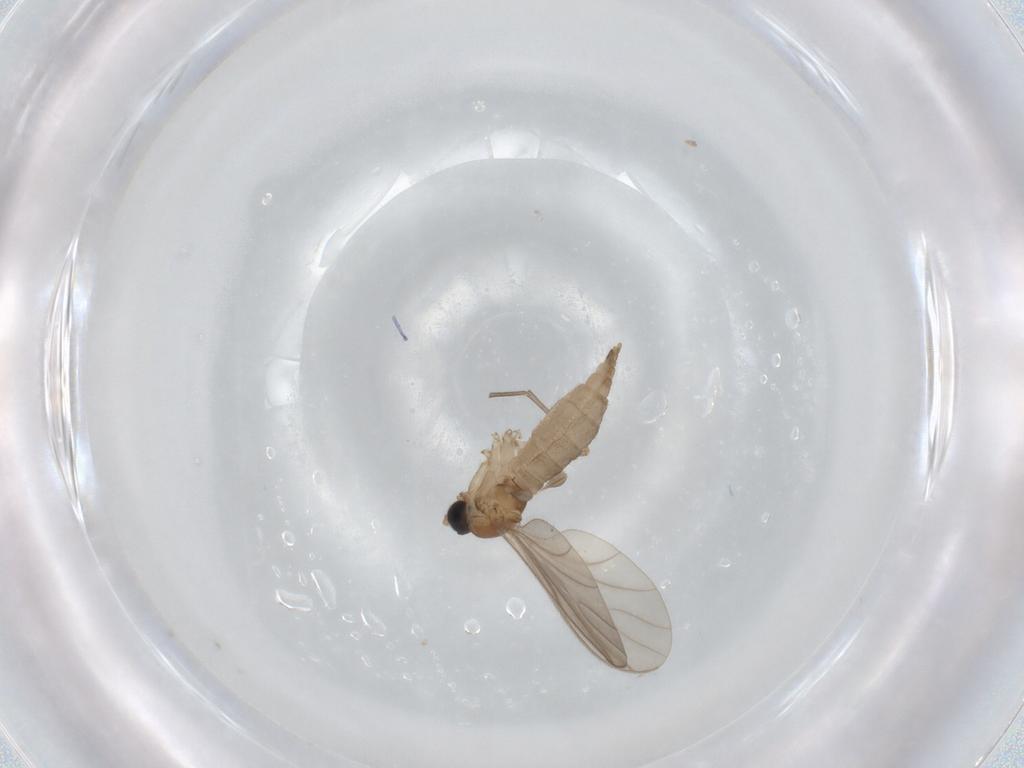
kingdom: Animalia
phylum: Arthropoda
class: Insecta
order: Diptera
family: Sciaridae
